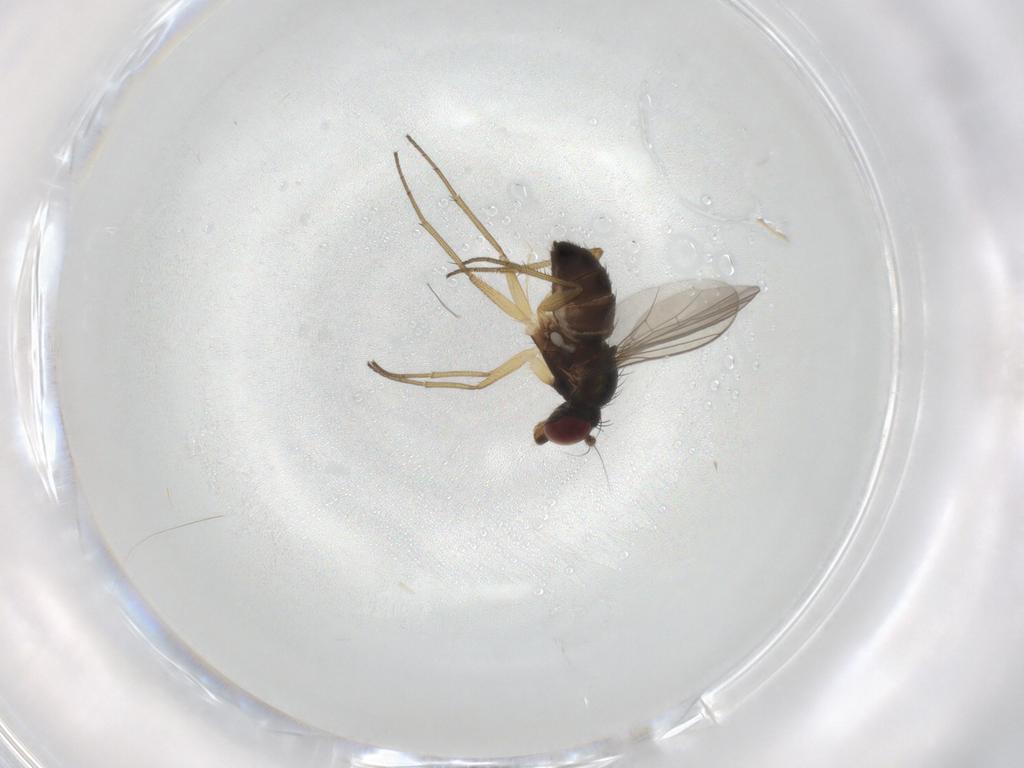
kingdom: Animalia
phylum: Arthropoda
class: Insecta
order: Diptera
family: Dolichopodidae
